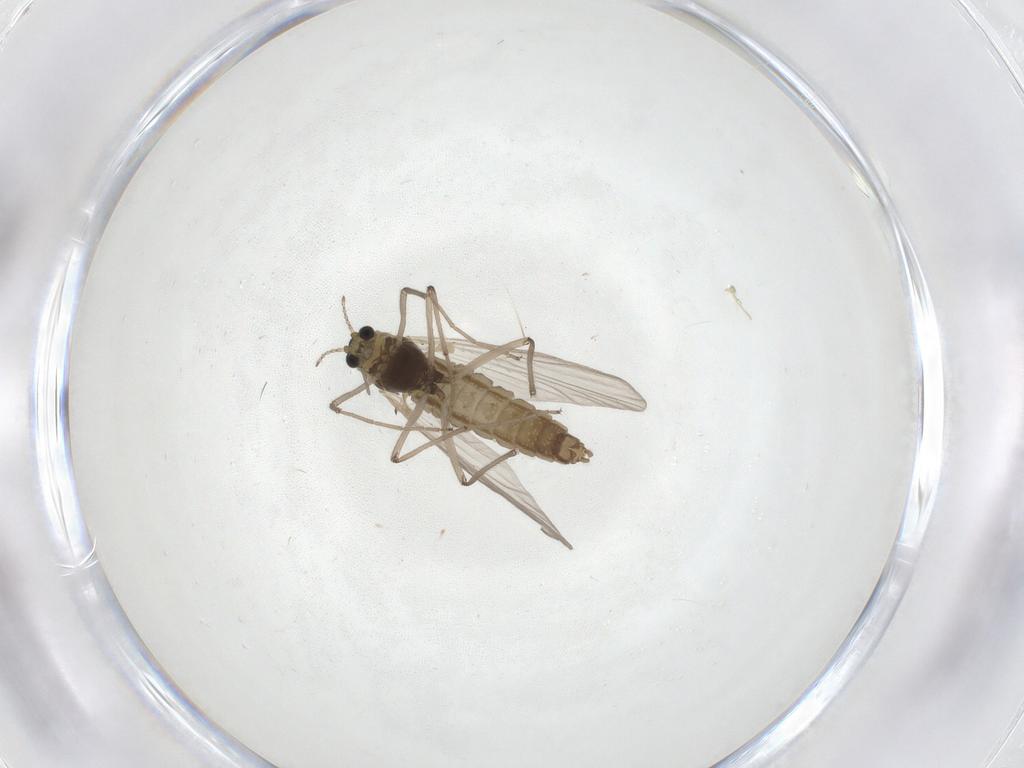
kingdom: Animalia
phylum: Arthropoda
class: Insecta
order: Diptera
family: Chironomidae
